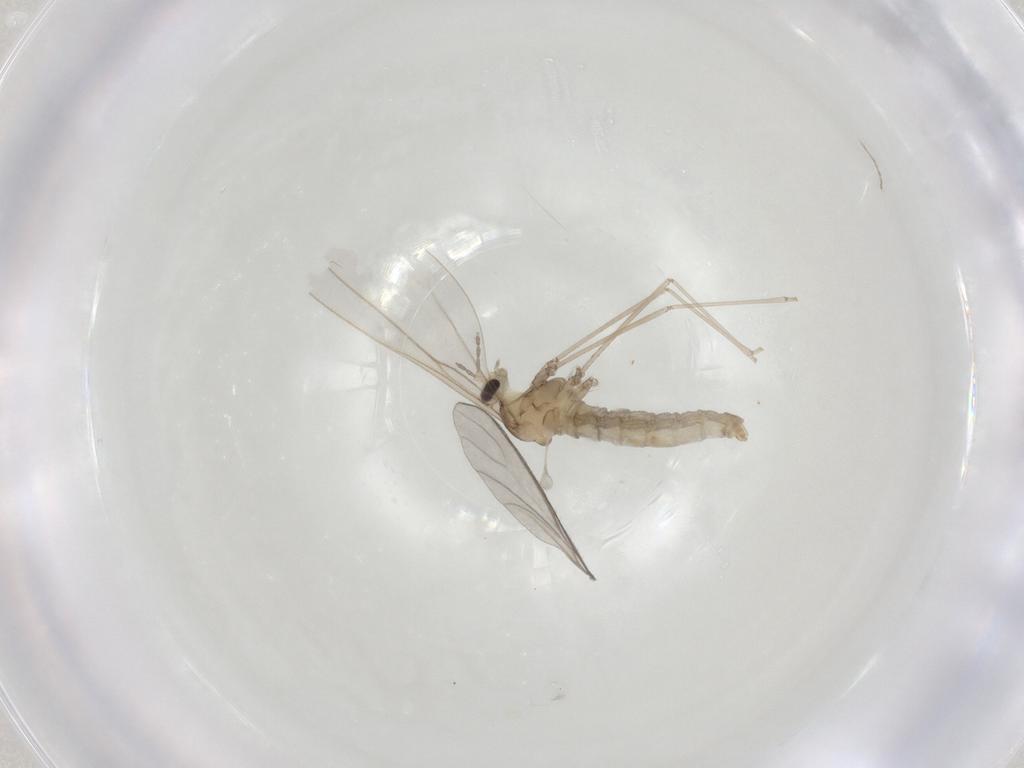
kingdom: Animalia
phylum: Arthropoda
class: Insecta
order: Diptera
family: Cecidomyiidae
